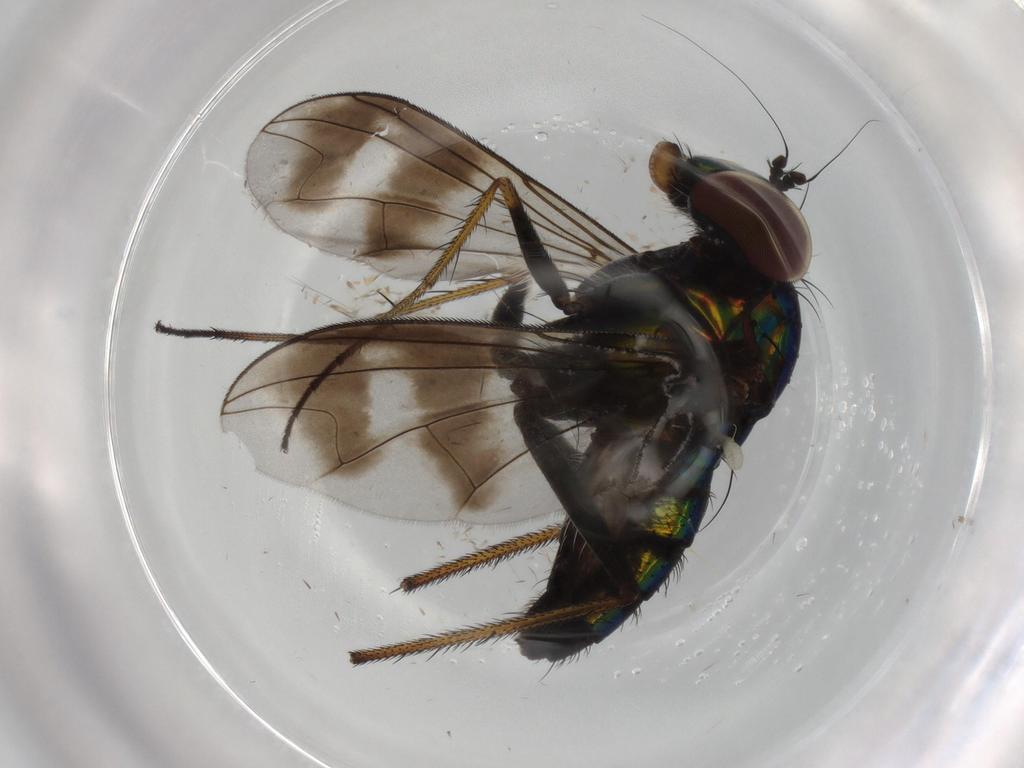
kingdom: Animalia
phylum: Arthropoda
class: Insecta
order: Diptera
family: Dolichopodidae
